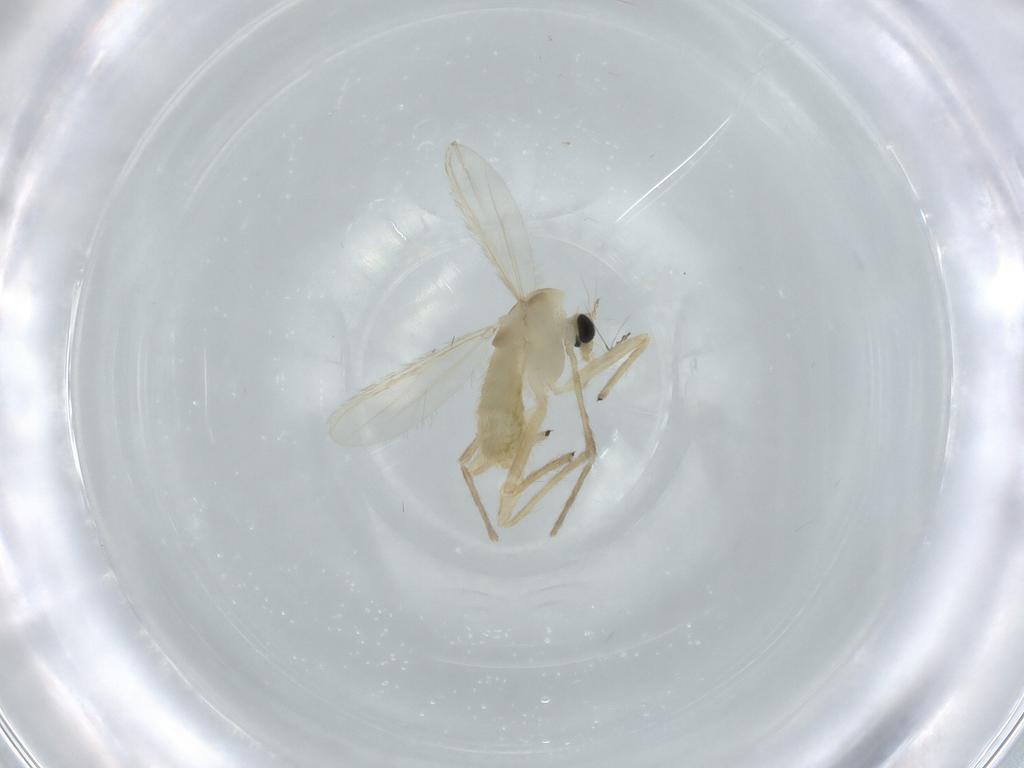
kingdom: Animalia
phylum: Arthropoda
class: Insecta
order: Diptera
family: Chironomidae
